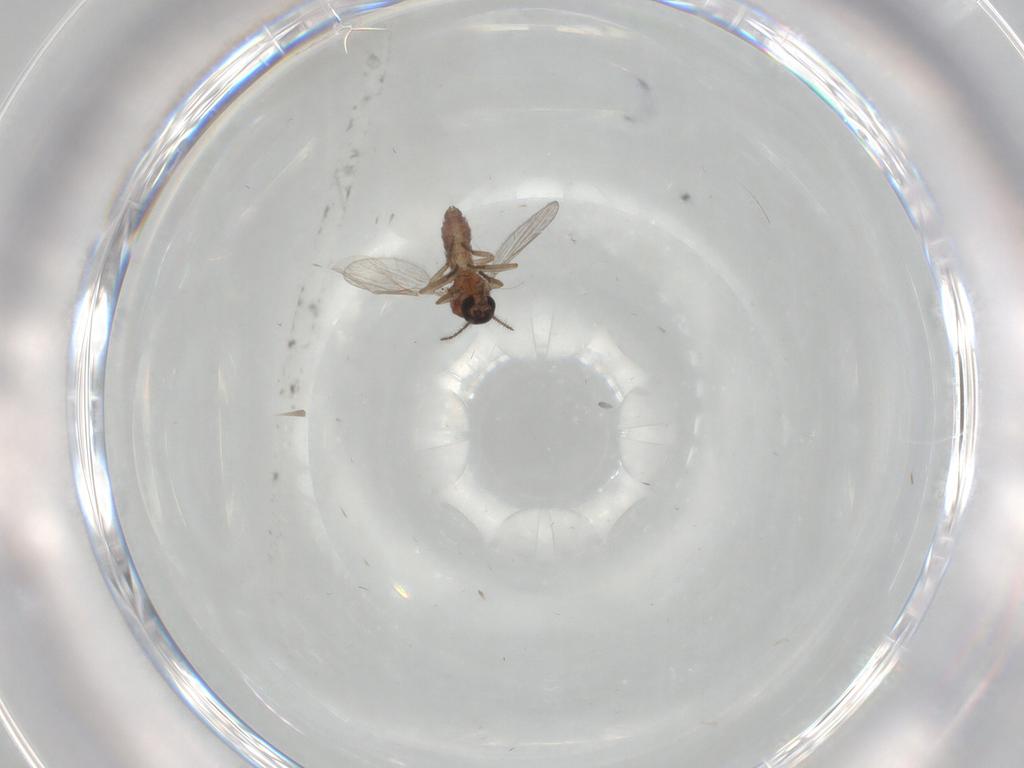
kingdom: Animalia
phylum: Arthropoda
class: Insecta
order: Diptera
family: Ceratopogonidae
